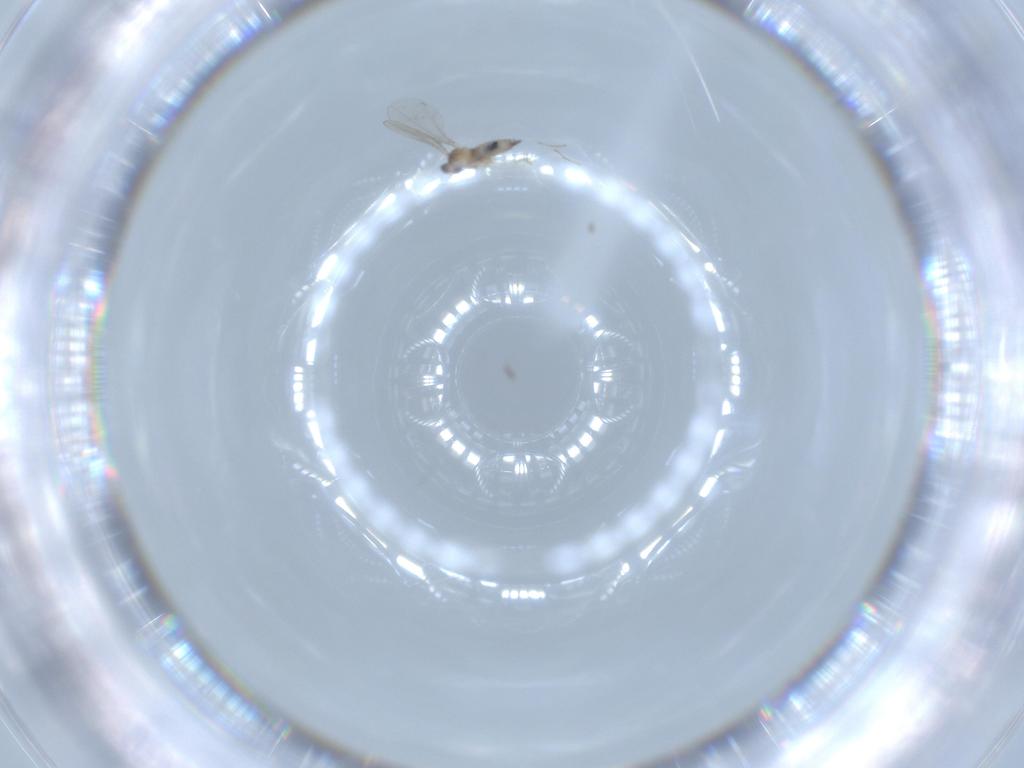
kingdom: Animalia
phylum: Arthropoda
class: Insecta
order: Diptera
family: Cecidomyiidae
